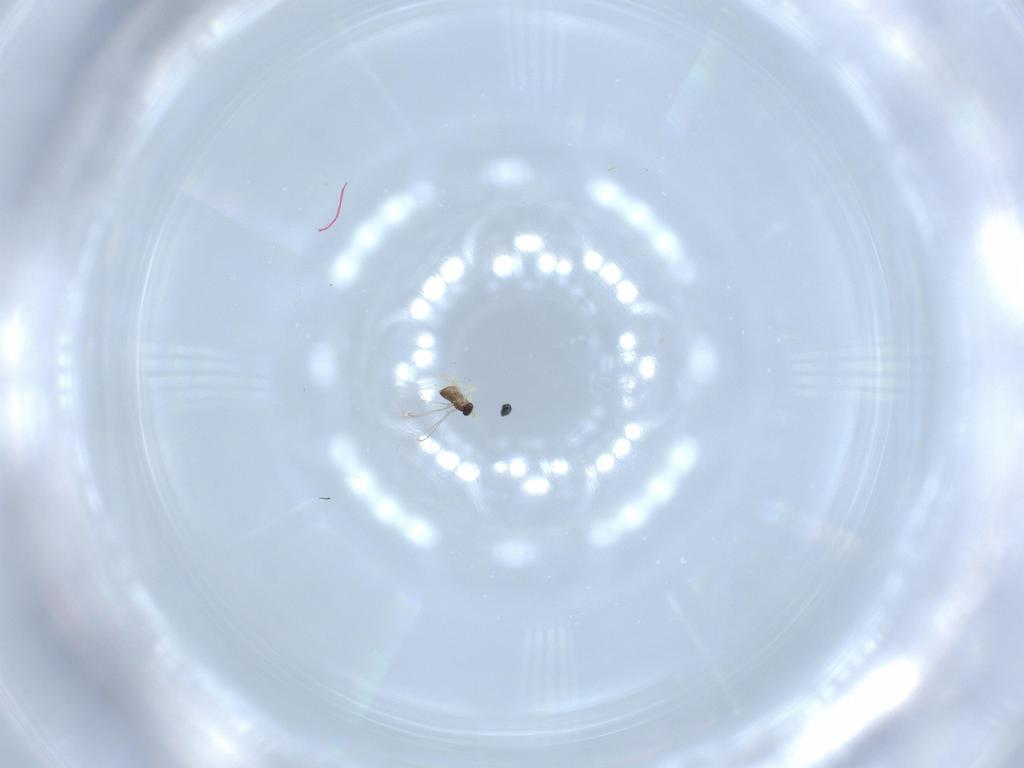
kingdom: Animalia
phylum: Arthropoda
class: Insecta
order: Hymenoptera
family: Mymaridae
